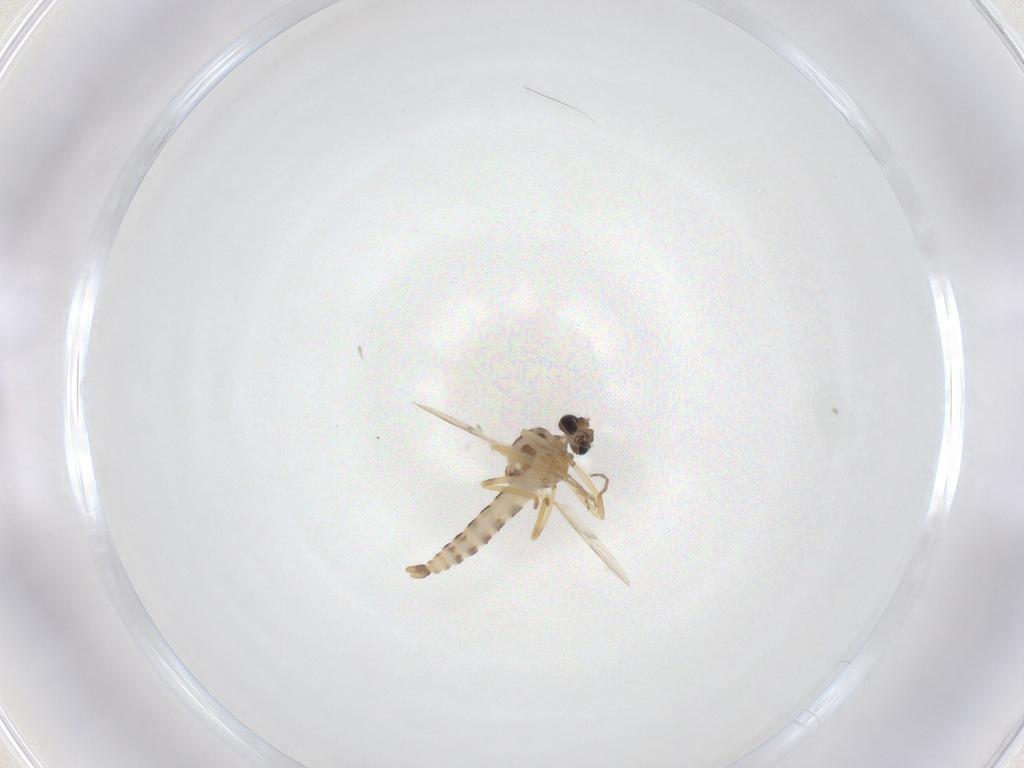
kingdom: Animalia
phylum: Arthropoda
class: Insecta
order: Diptera
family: Ceratopogonidae
